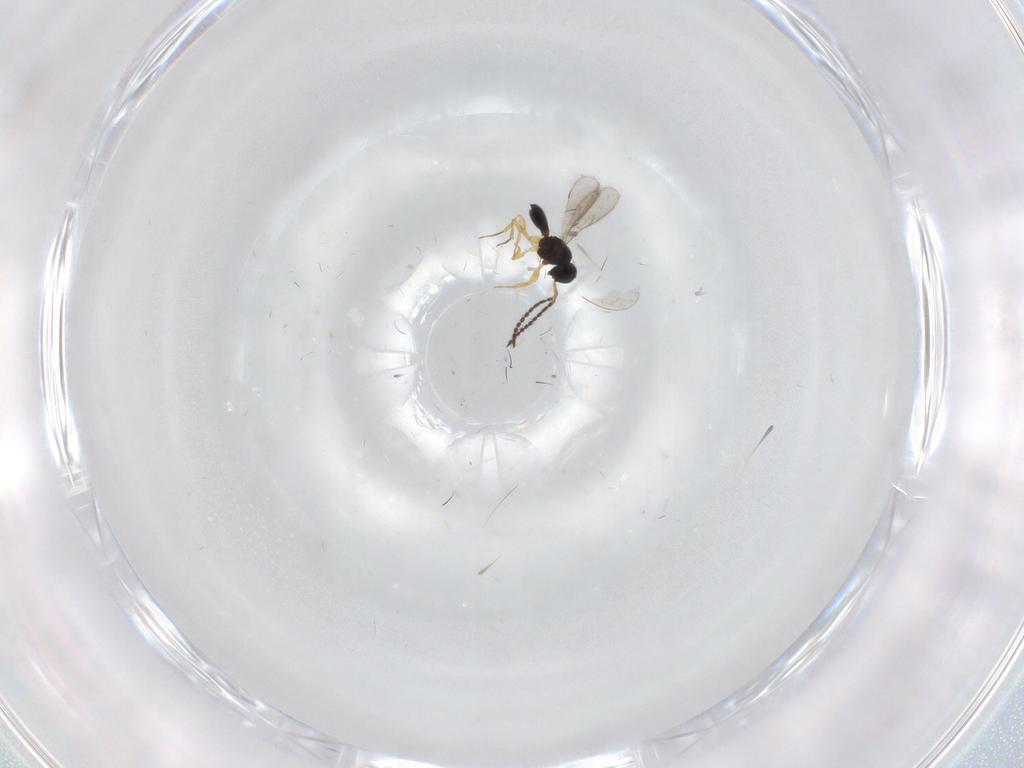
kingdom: Animalia
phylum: Arthropoda
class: Insecta
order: Hymenoptera
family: Scelionidae
